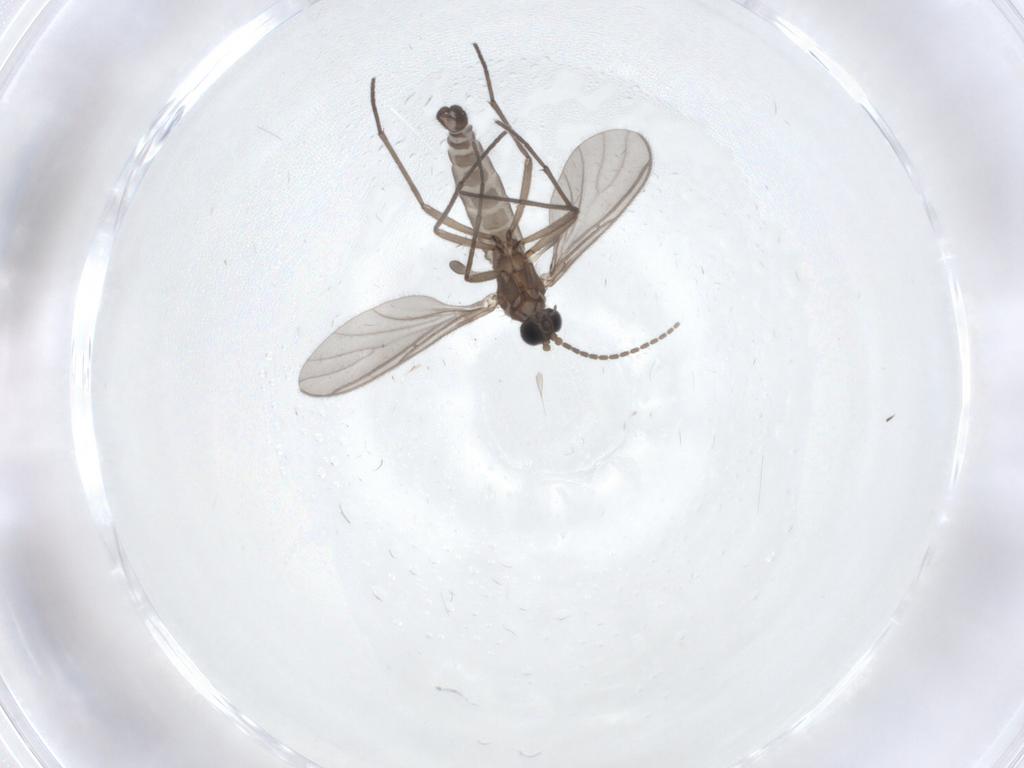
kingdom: Animalia
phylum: Arthropoda
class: Insecta
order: Diptera
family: Sciaridae
